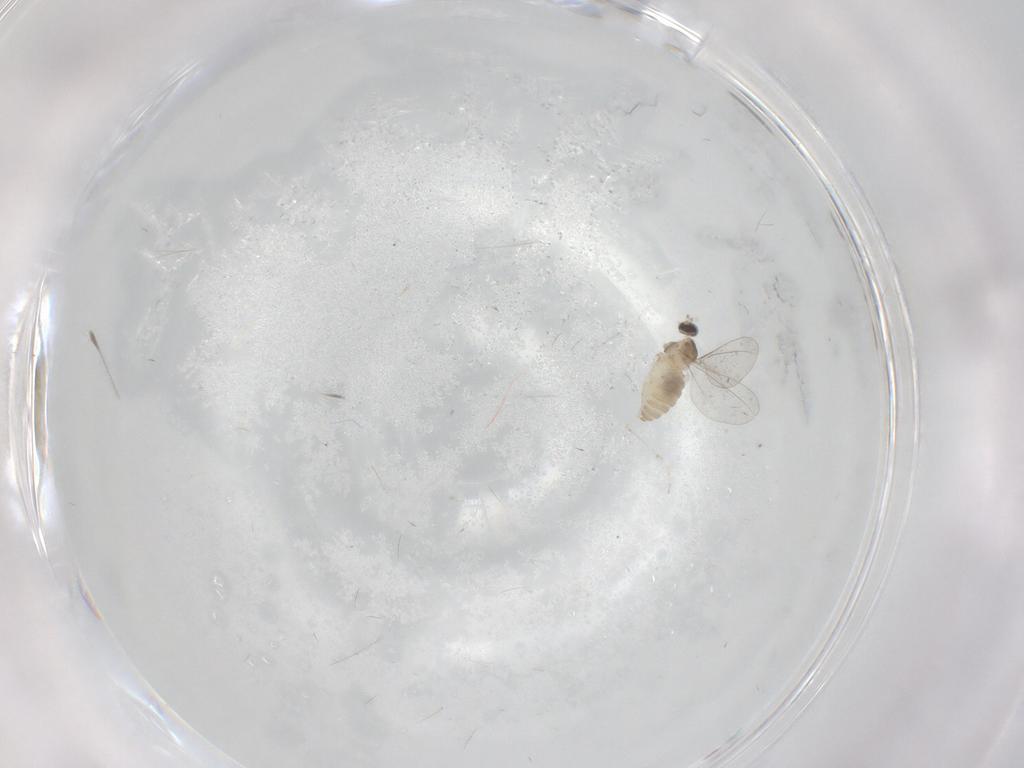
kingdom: Animalia
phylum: Arthropoda
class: Insecta
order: Diptera
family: Cecidomyiidae
